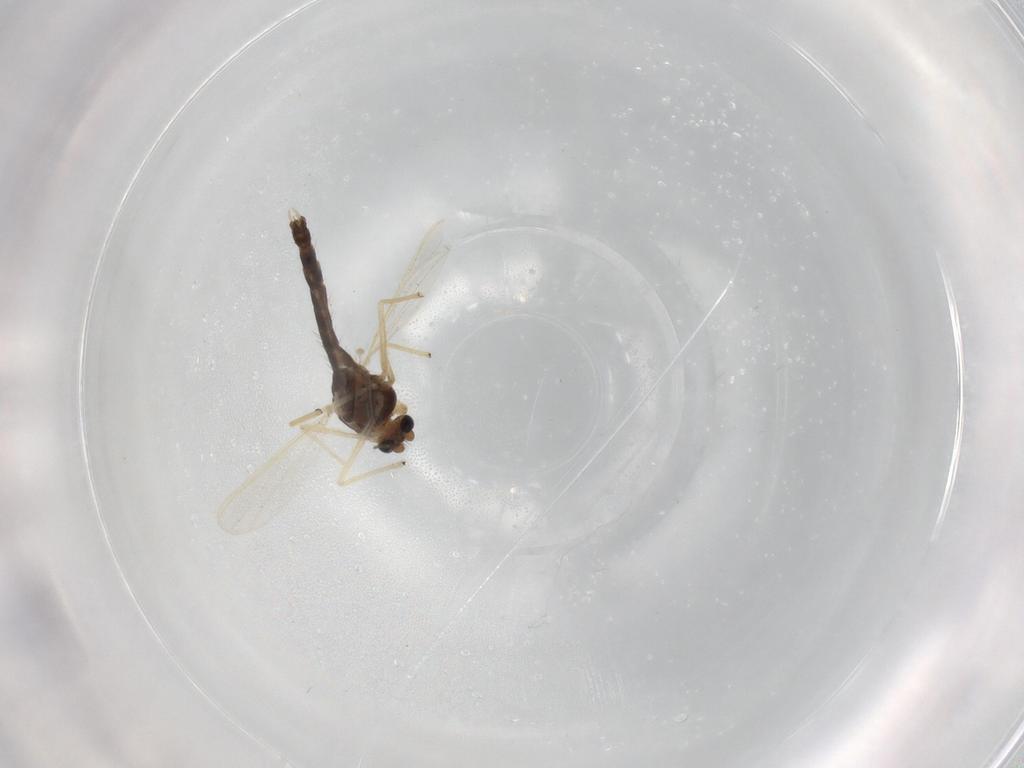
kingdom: Animalia
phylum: Arthropoda
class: Insecta
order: Diptera
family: Chironomidae
